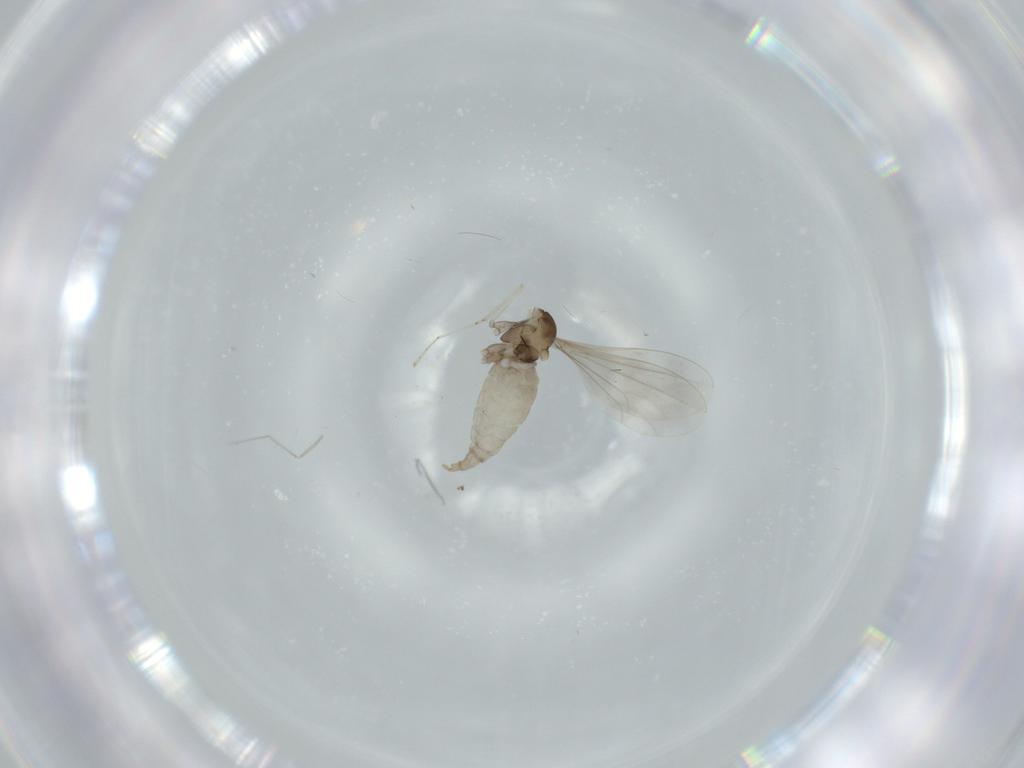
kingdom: Animalia
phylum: Arthropoda
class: Insecta
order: Diptera
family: Cecidomyiidae
